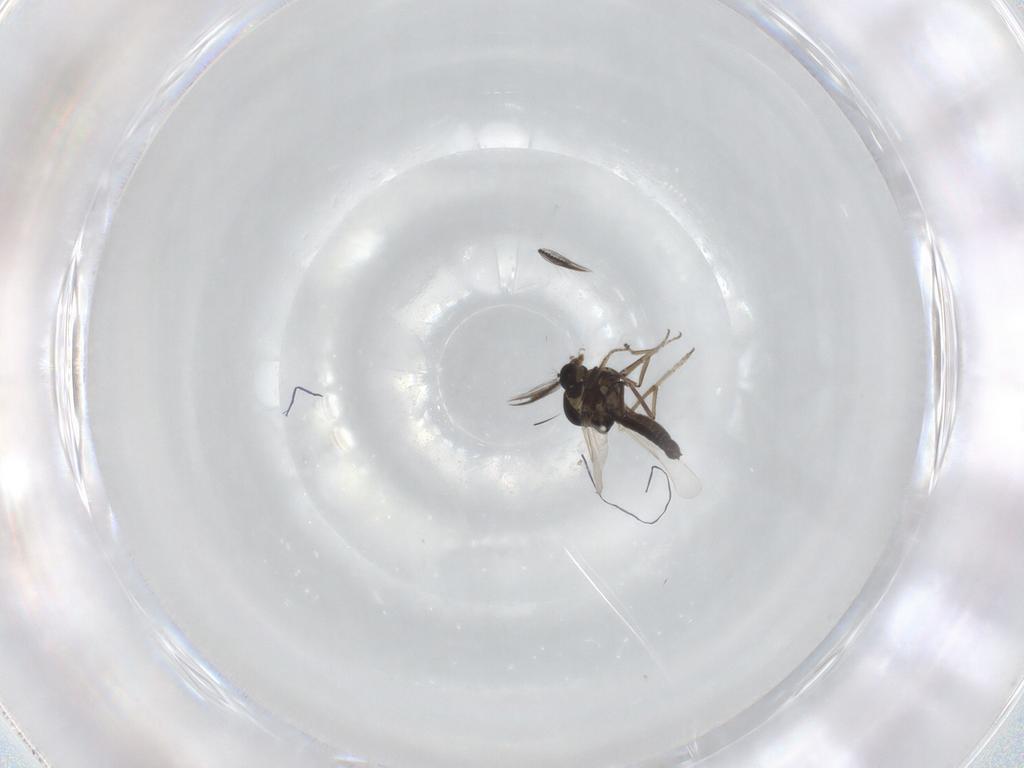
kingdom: Animalia
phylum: Arthropoda
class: Insecta
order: Diptera
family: Ceratopogonidae
